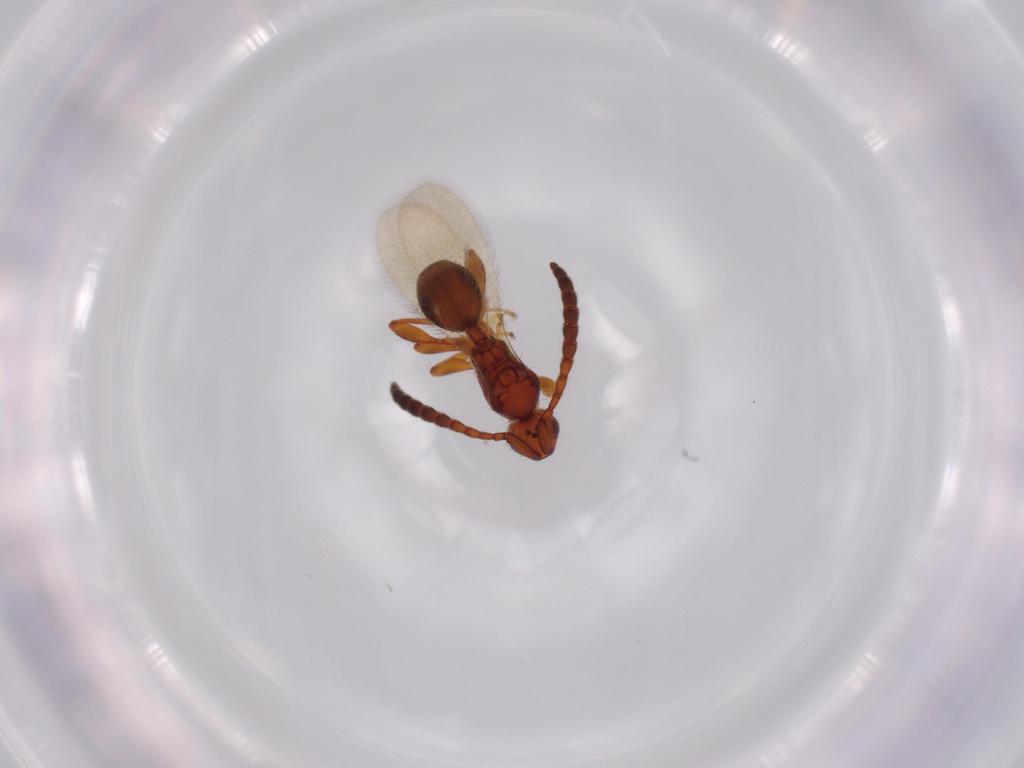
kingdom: Animalia
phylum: Arthropoda
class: Insecta
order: Hymenoptera
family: Diapriidae
